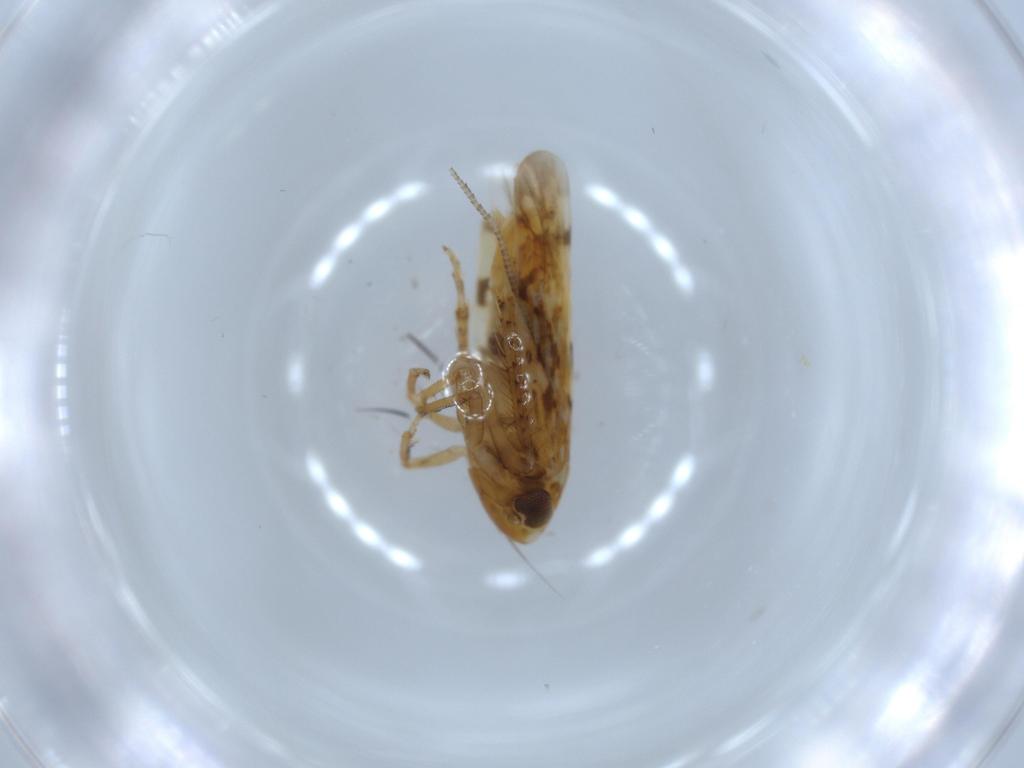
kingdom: Animalia
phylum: Arthropoda
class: Insecta
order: Hemiptera
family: Cicadellidae
